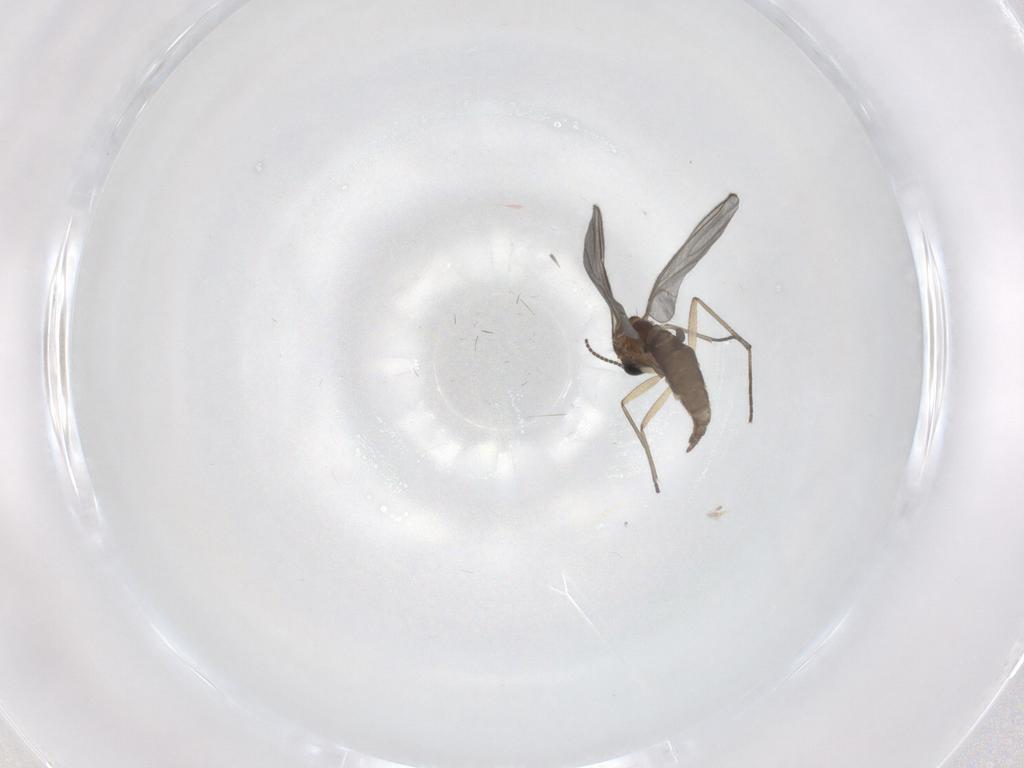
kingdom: Animalia
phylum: Arthropoda
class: Insecta
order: Diptera
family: Sciaridae
